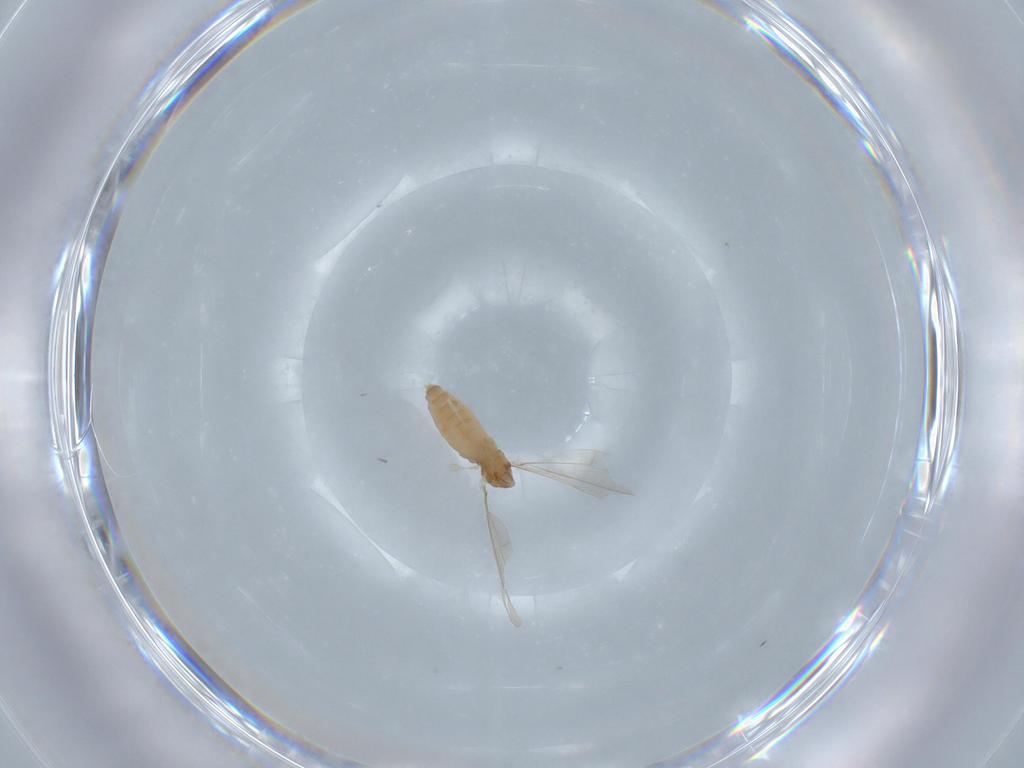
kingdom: Animalia
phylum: Arthropoda
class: Insecta
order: Diptera
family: Cecidomyiidae
